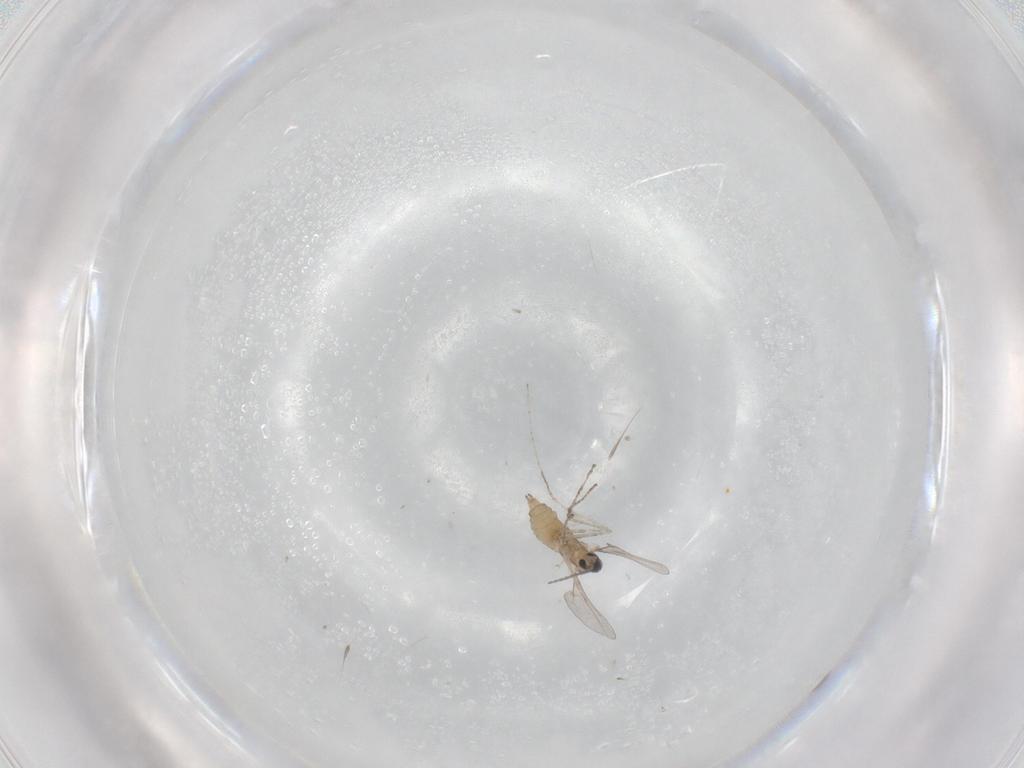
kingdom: Animalia
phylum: Arthropoda
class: Insecta
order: Diptera
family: Cecidomyiidae
